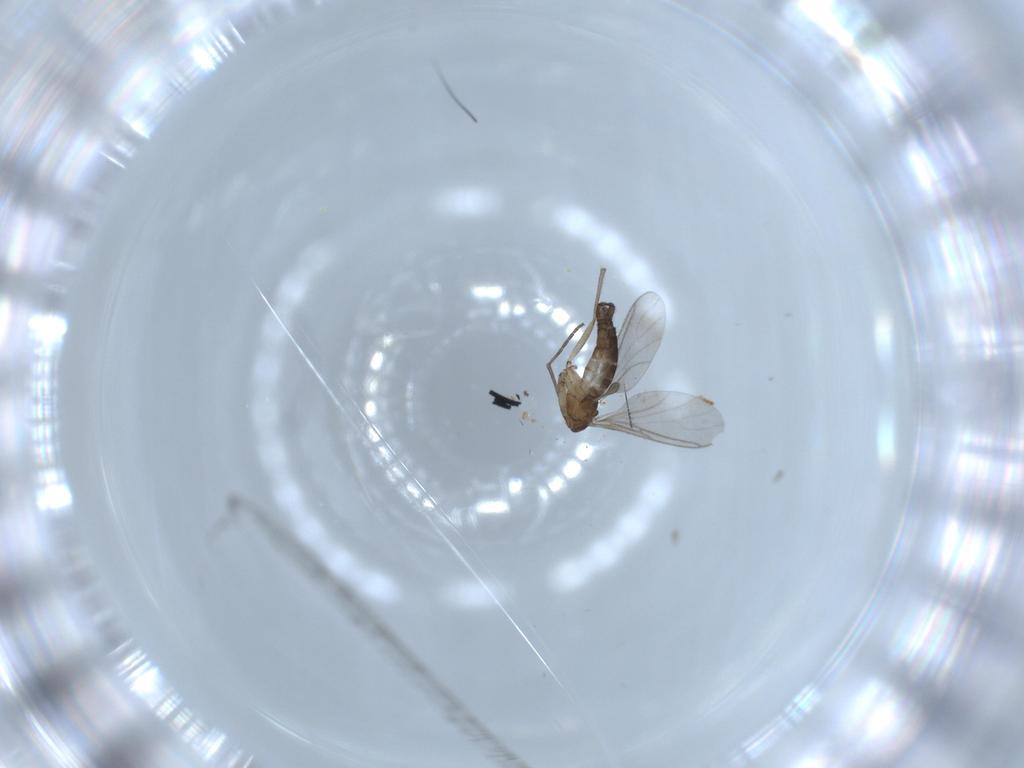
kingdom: Animalia
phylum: Arthropoda
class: Insecta
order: Diptera
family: Sciaridae
